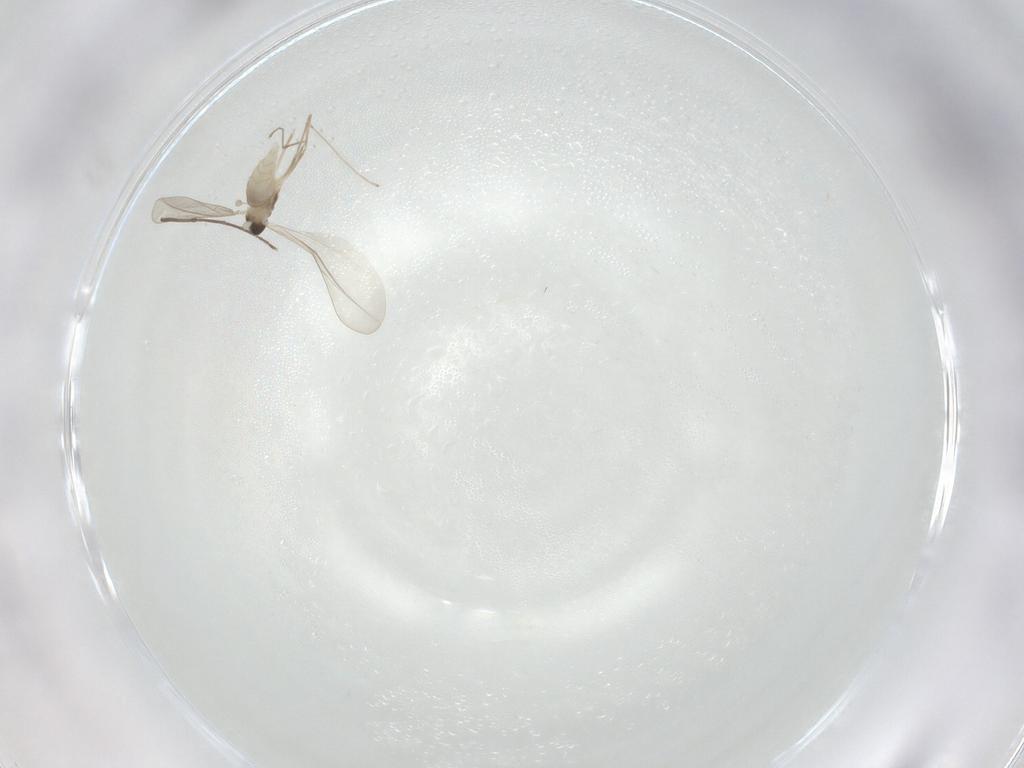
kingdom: Animalia
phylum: Arthropoda
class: Insecta
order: Diptera
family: Cecidomyiidae
